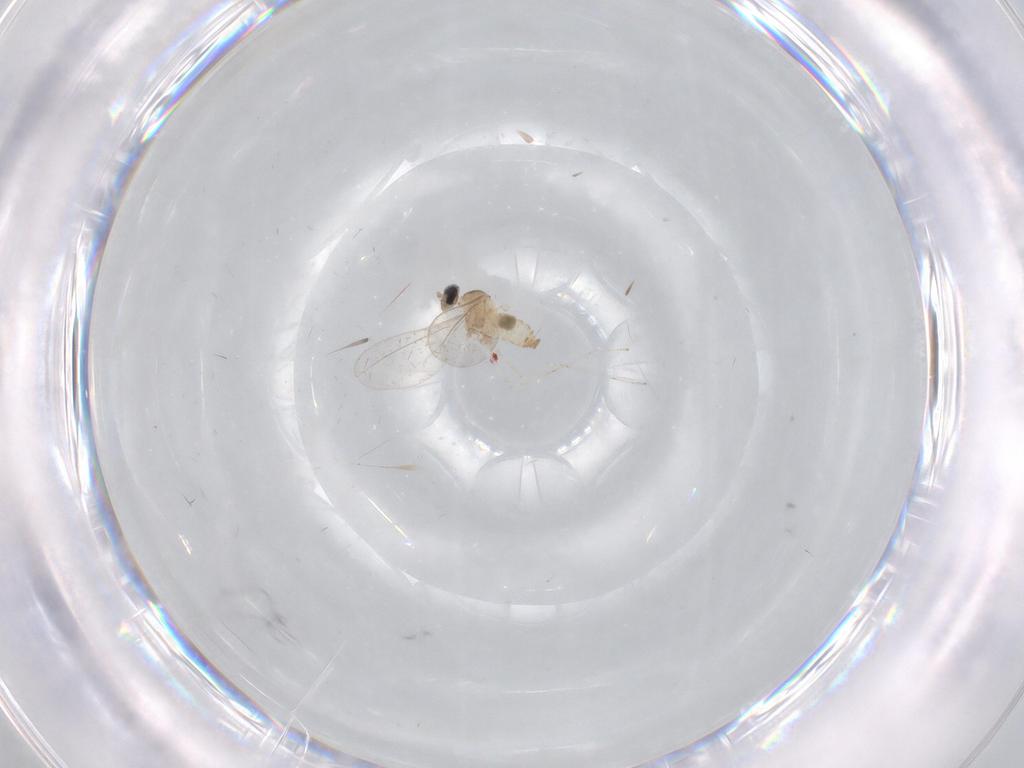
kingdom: Animalia
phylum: Arthropoda
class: Insecta
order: Diptera
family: Cecidomyiidae
